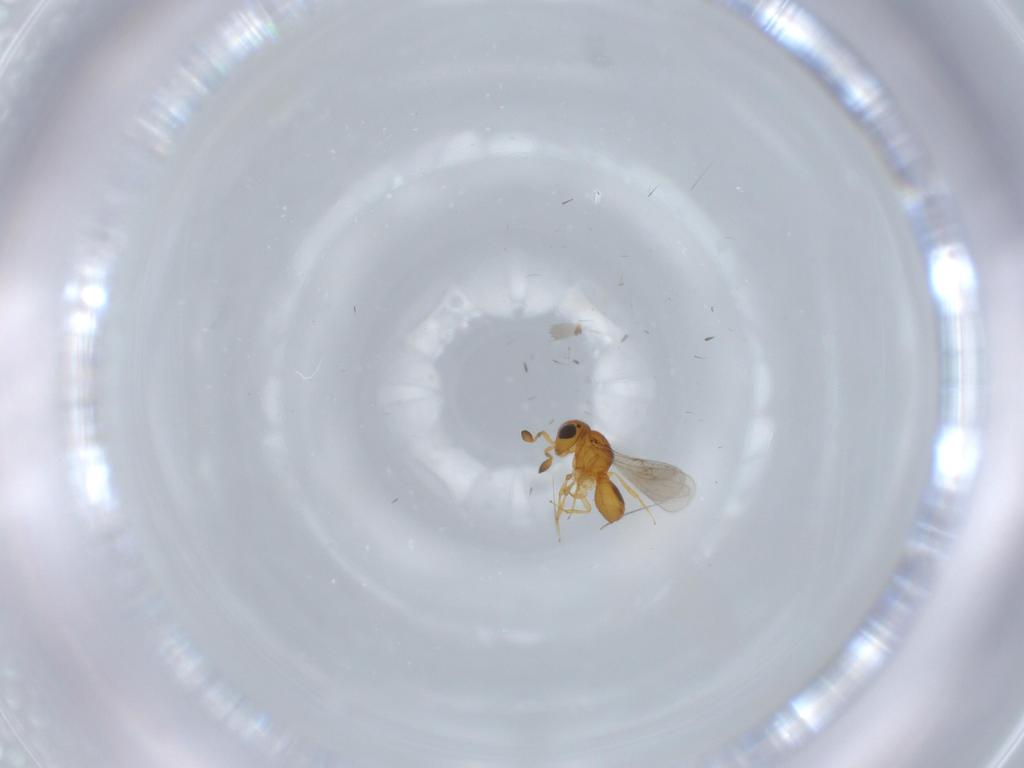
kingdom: Animalia
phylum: Arthropoda
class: Insecta
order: Hymenoptera
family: Scelionidae
